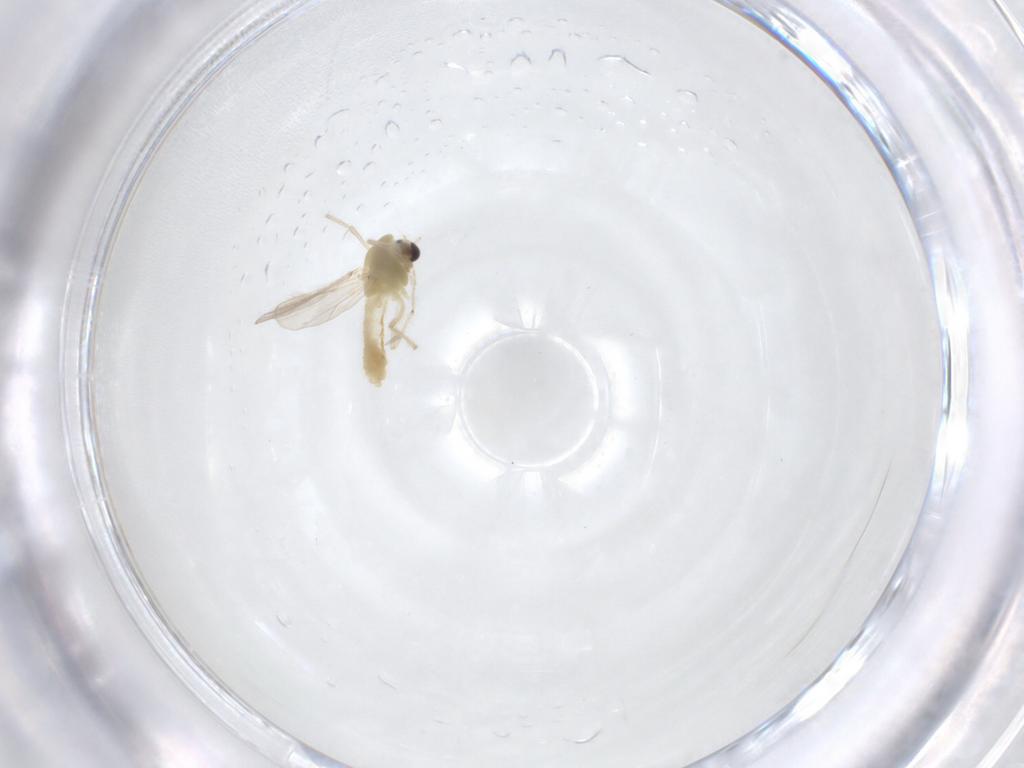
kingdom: Animalia
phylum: Arthropoda
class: Insecta
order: Diptera
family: Chironomidae
